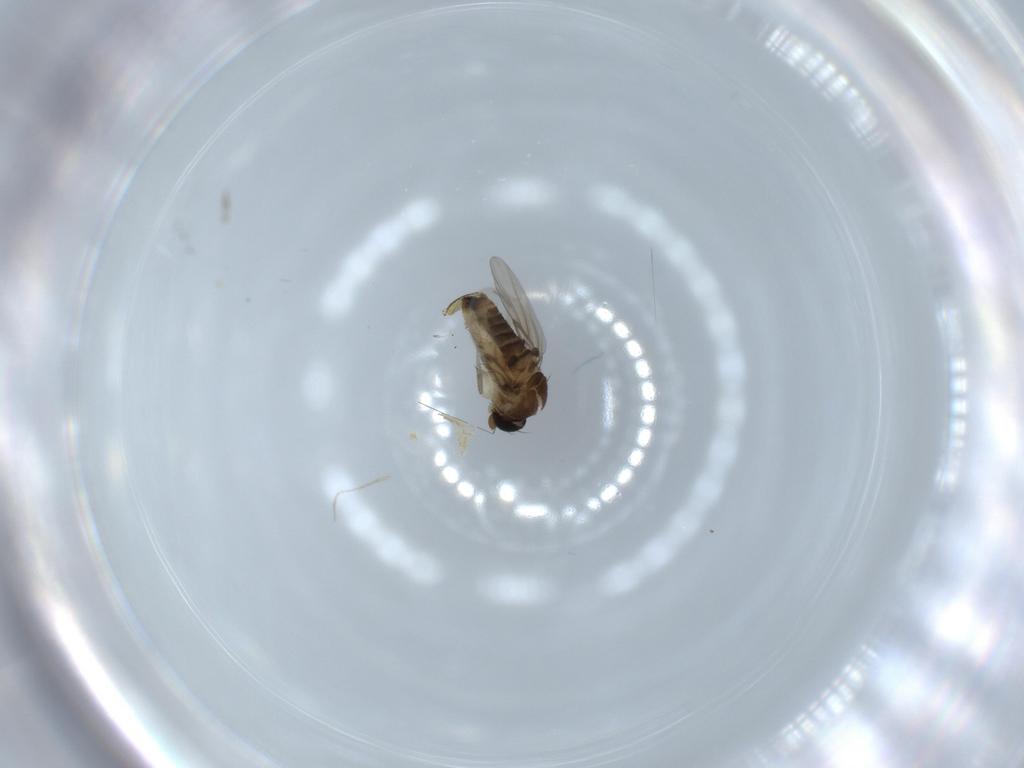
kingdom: Animalia
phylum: Arthropoda
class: Insecta
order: Diptera
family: Phoridae
